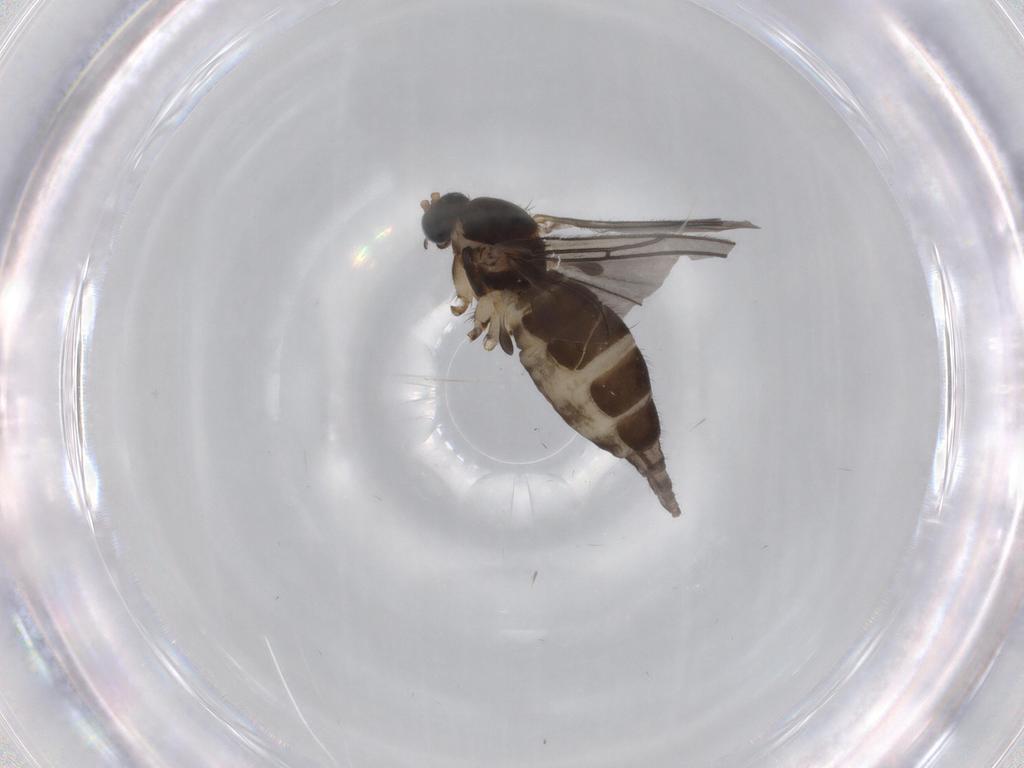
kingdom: Animalia
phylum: Arthropoda
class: Insecta
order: Diptera
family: Sciaridae
